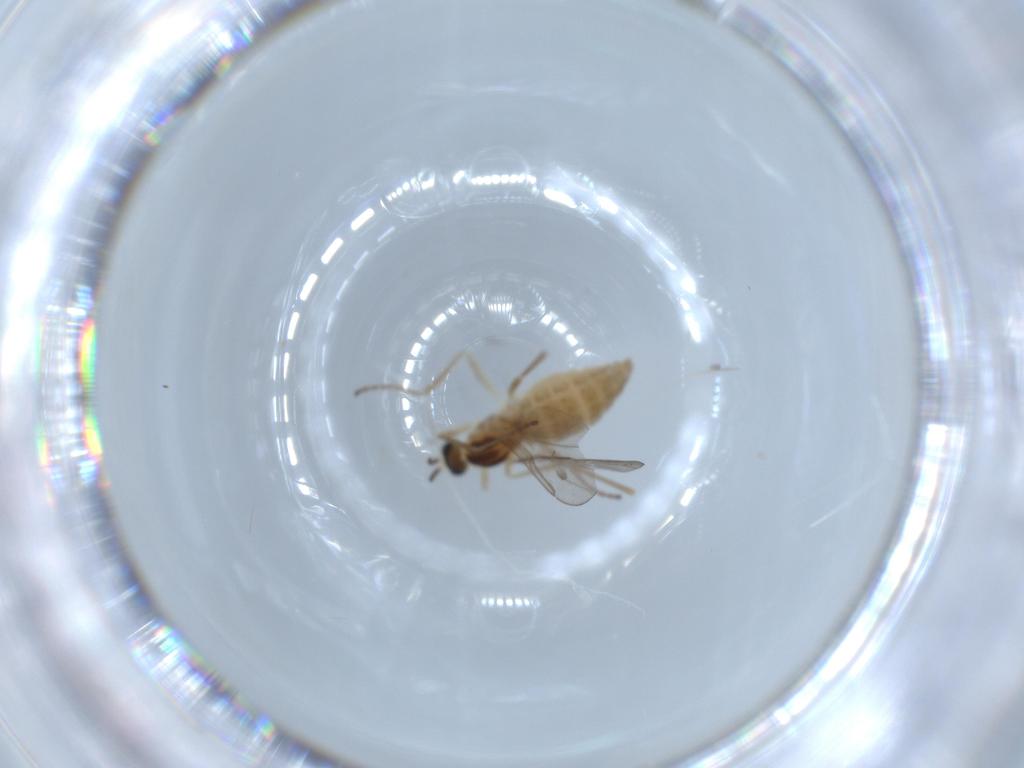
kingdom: Animalia
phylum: Arthropoda
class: Insecta
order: Diptera
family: Cecidomyiidae
